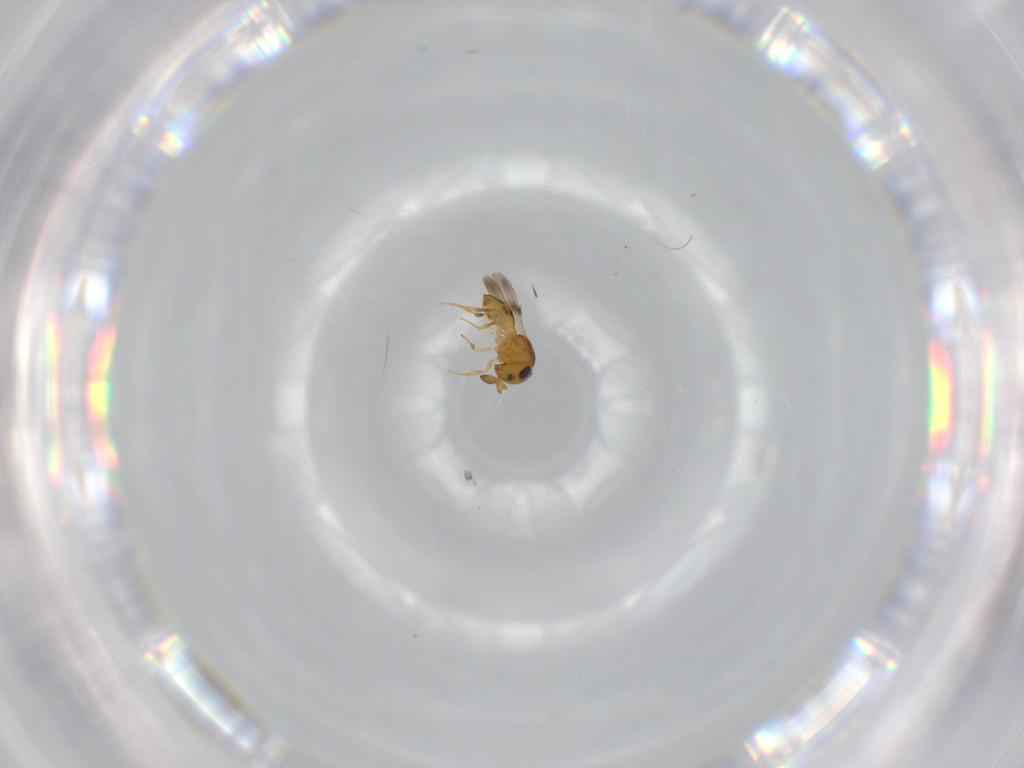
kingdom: Animalia
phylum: Arthropoda
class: Insecta
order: Hymenoptera
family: Scelionidae
